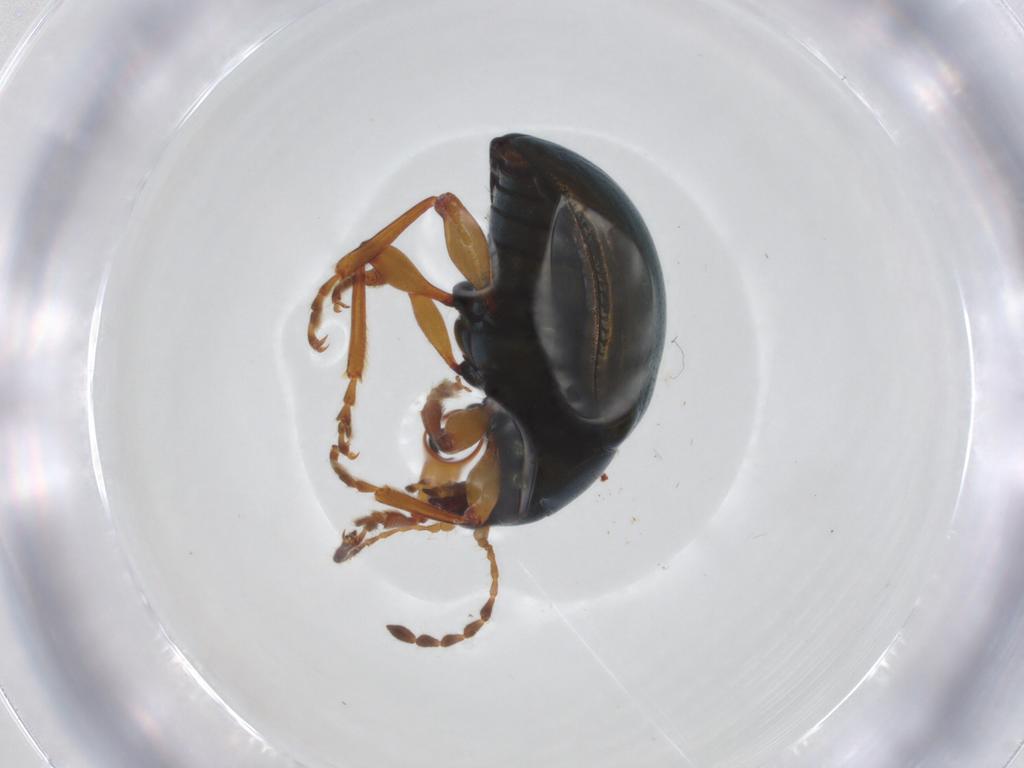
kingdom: Animalia
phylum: Arthropoda
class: Insecta
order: Coleoptera
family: Chrysomelidae
